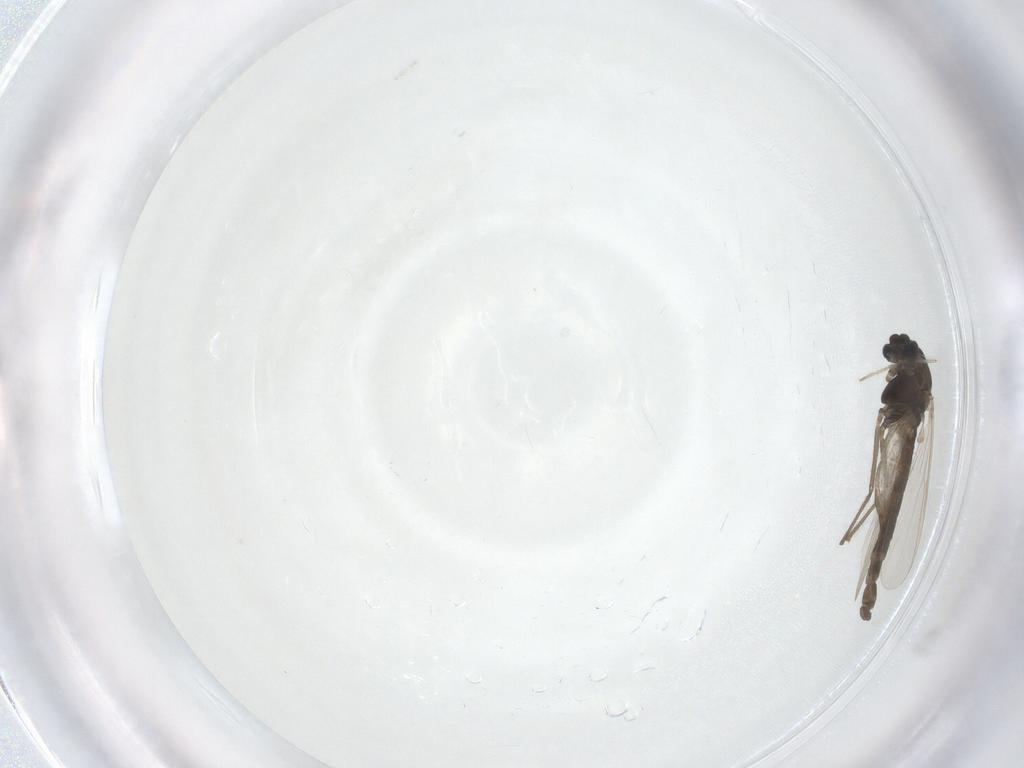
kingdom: Animalia
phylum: Arthropoda
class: Insecta
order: Diptera
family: Chironomidae
